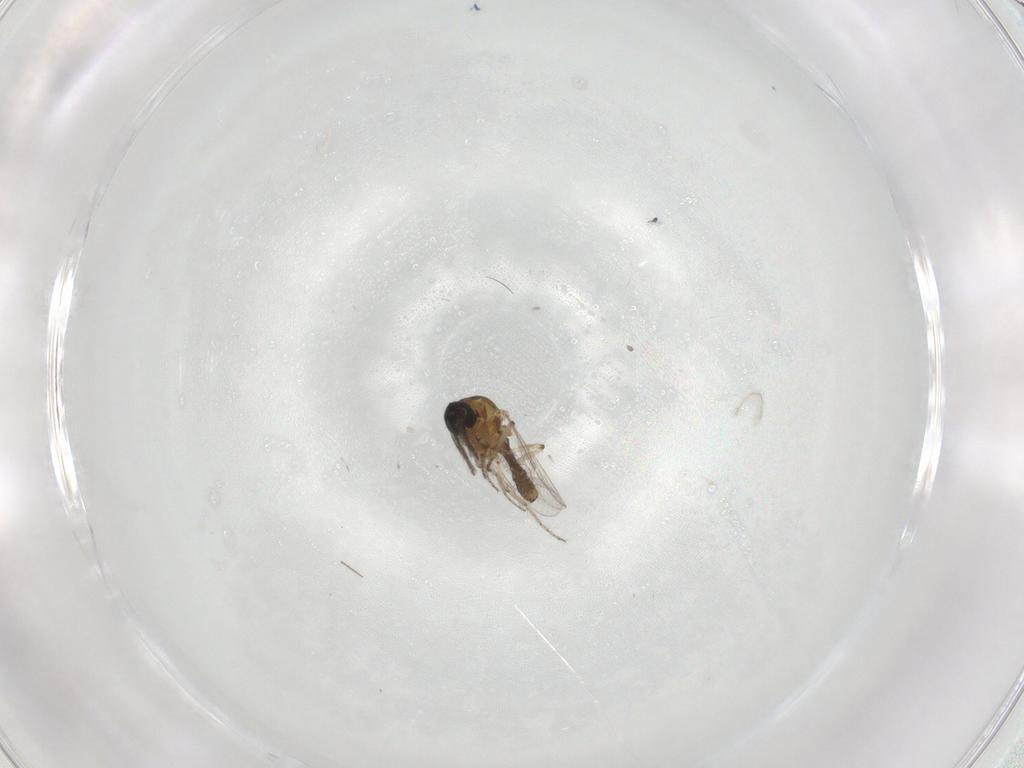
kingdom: Animalia
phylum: Arthropoda
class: Insecta
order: Diptera
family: Ceratopogonidae
